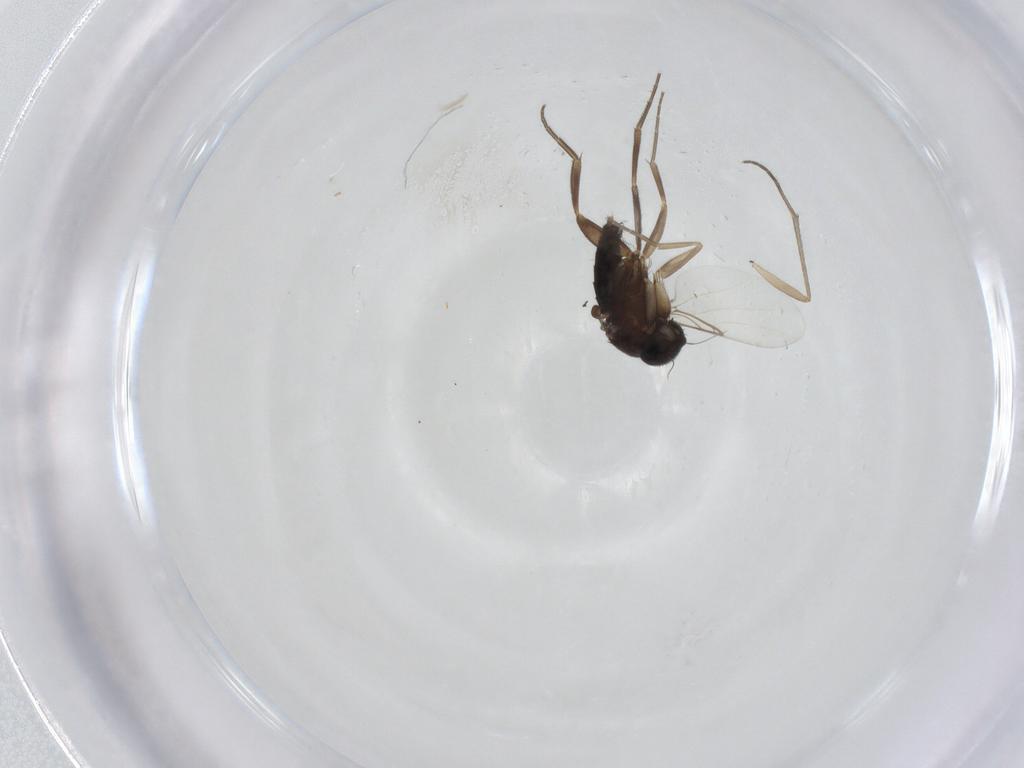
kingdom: Animalia
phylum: Arthropoda
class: Insecta
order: Diptera
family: Phoridae
